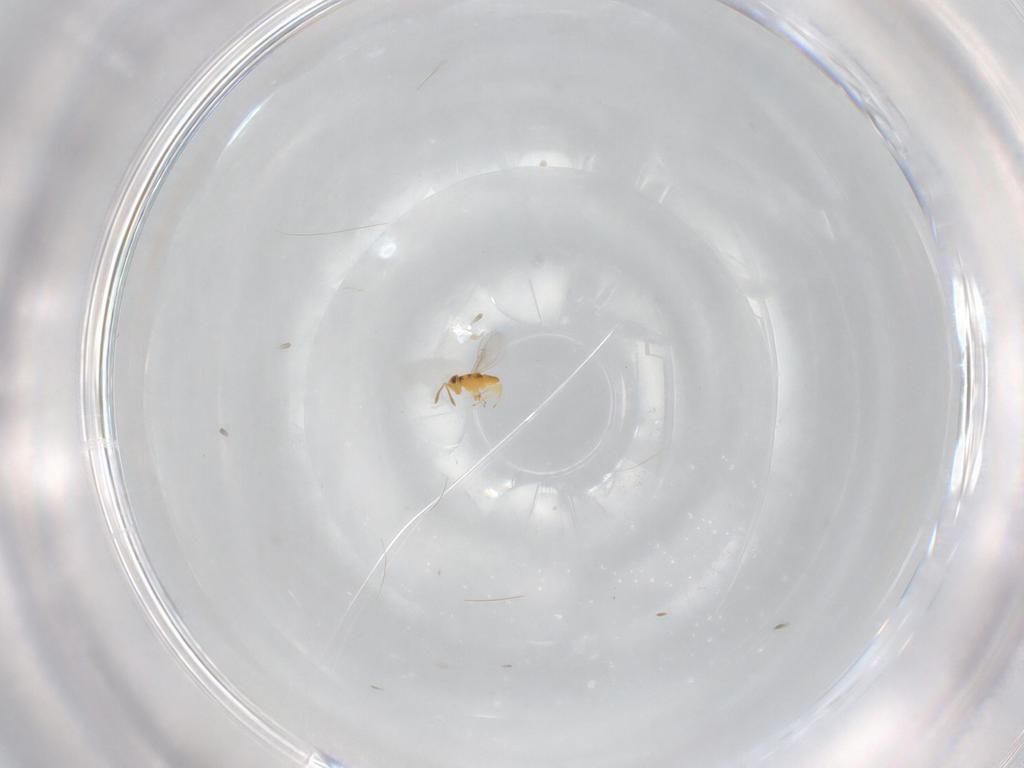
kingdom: Animalia
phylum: Arthropoda
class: Insecta
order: Hymenoptera
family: Encyrtidae
